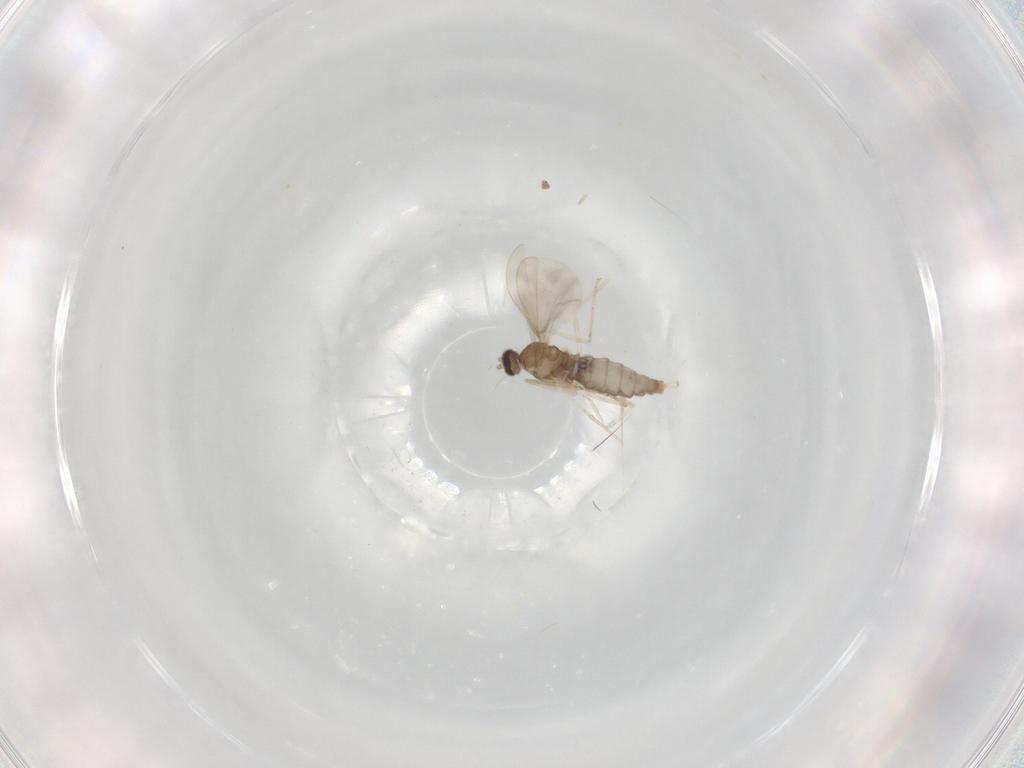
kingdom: Animalia
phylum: Arthropoda
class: Insecta
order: Diptera
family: Cecidomyiidae
